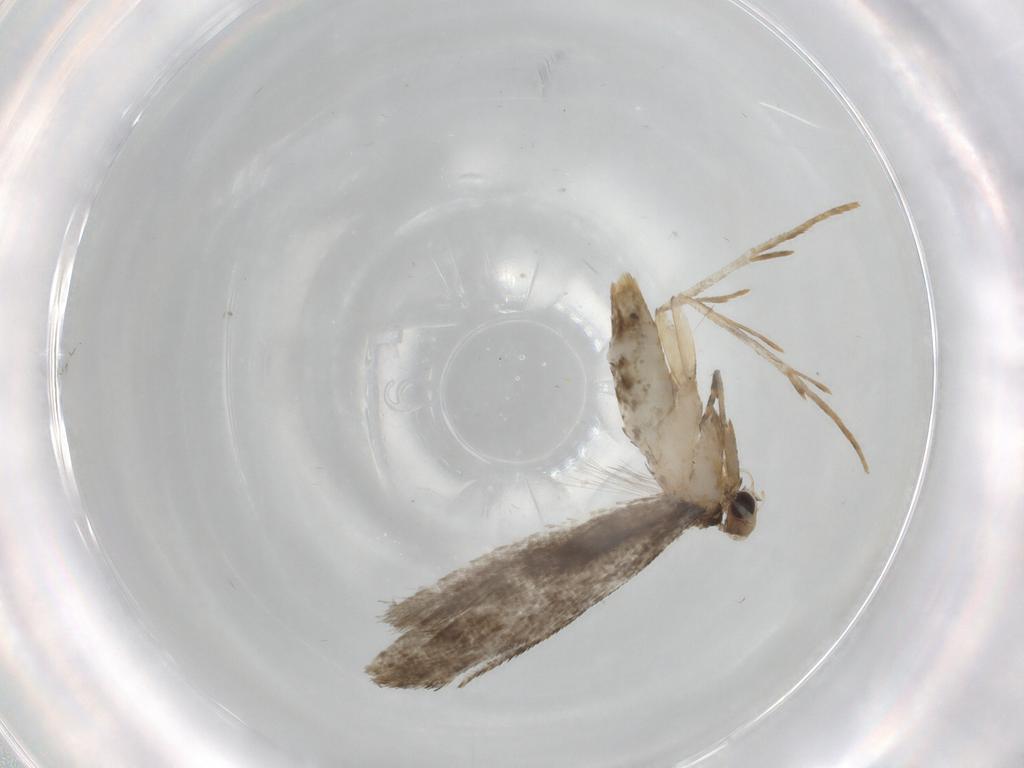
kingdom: Animalia
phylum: Arthropoda
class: Insecta
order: Lepidoptera
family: Tineidae
